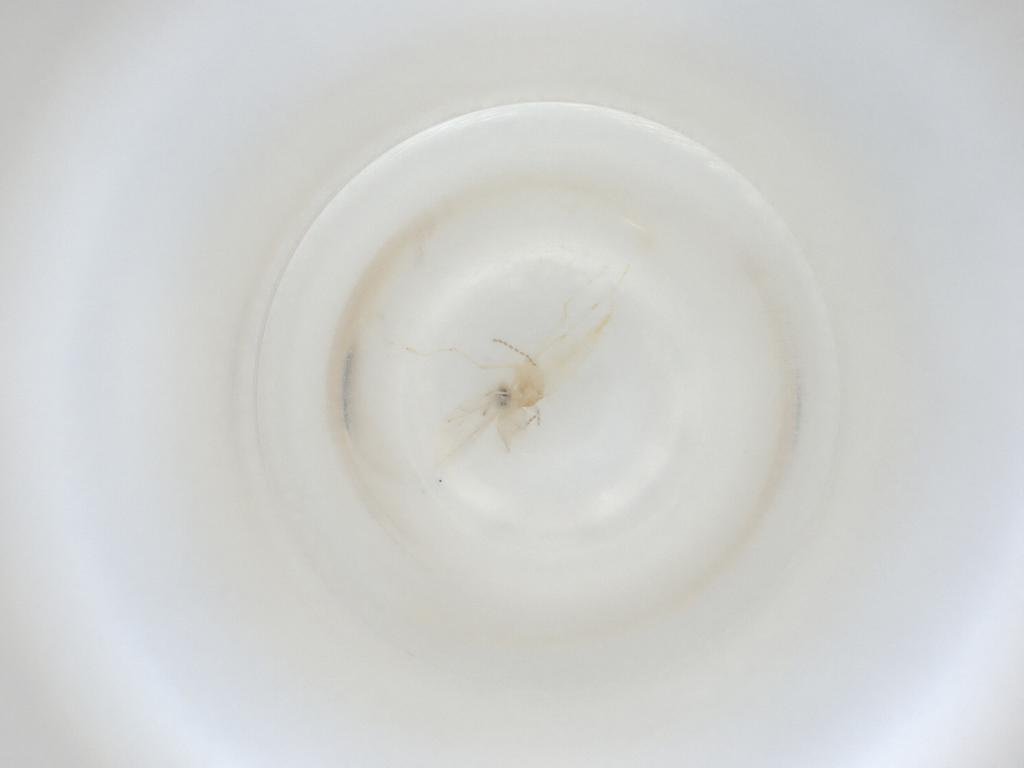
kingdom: Animalia
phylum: Arthropoda
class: Insecta
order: Diptera
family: Cecidomyiidae
